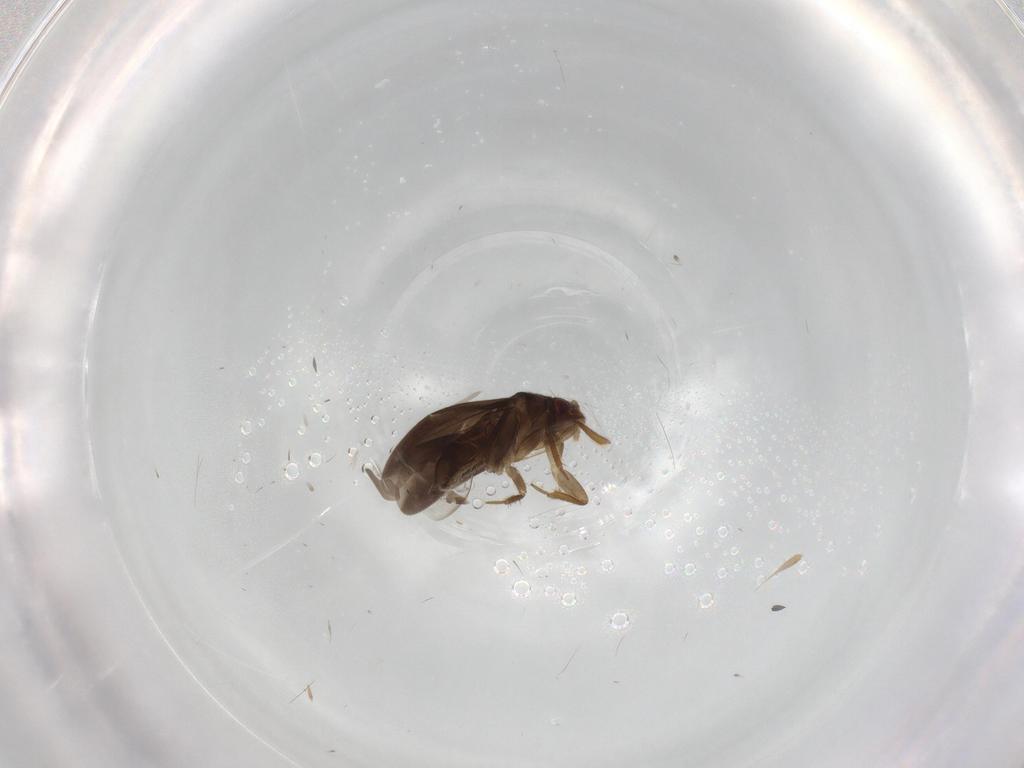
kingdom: Animalia
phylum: Arthropoda
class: Insecta
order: Hemiptera
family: Ceratocombidae
